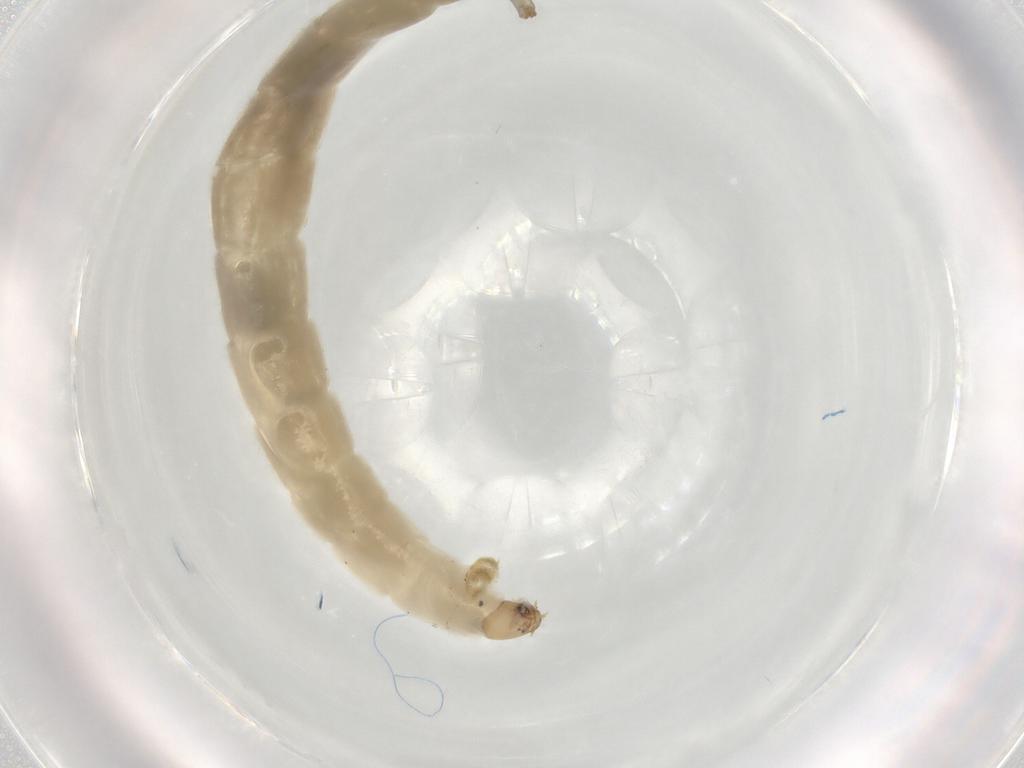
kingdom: Animalia
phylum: Arthropoda
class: Insecta
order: Diptera
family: Chironomidae
